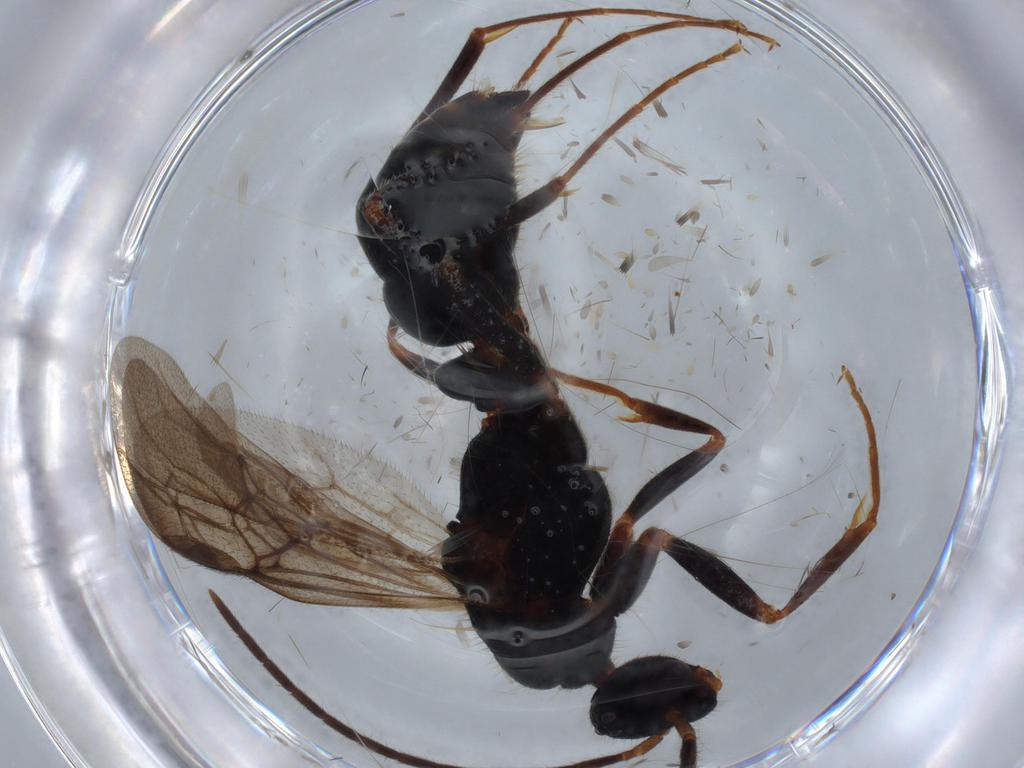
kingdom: Animalia
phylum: Arthropoda
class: Insecta
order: Hymenoptera
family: Formicidae
